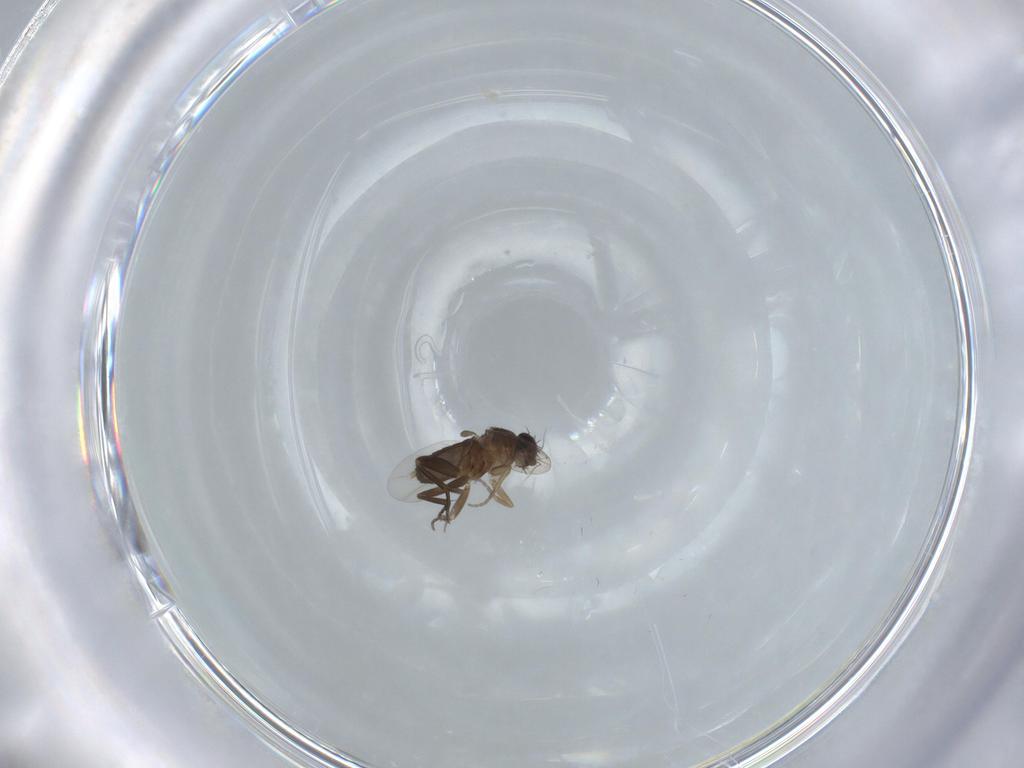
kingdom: Animalia
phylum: Arthropoda
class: Insecta
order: Diptera
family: Phoridae
